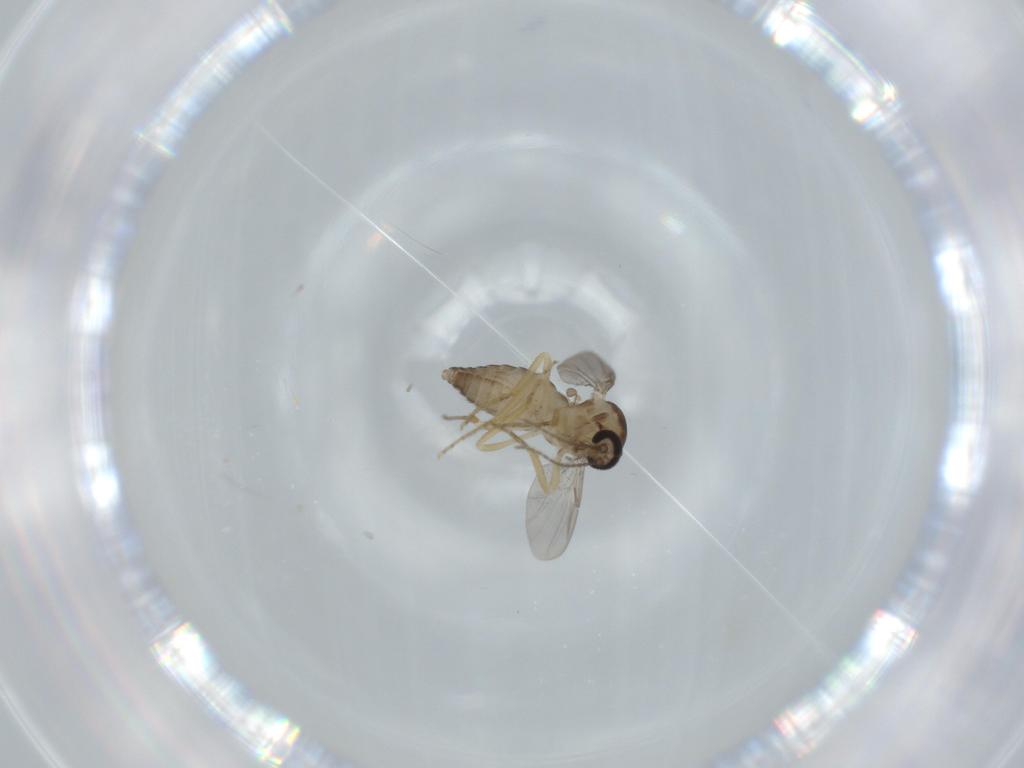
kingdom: Animalia
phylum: Arthropoda
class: Insecta
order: Diptera
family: Ceratopogonidae
